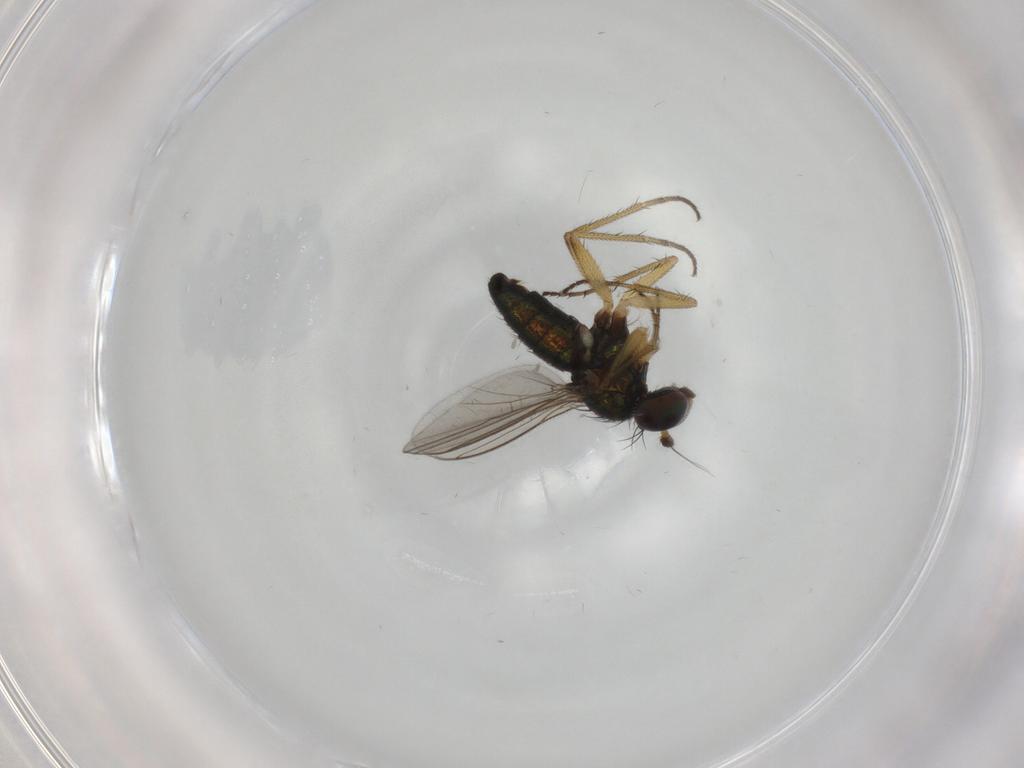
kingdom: Animalia
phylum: Arthropoda
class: Insecta
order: Diptera
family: Dolichopodidae
